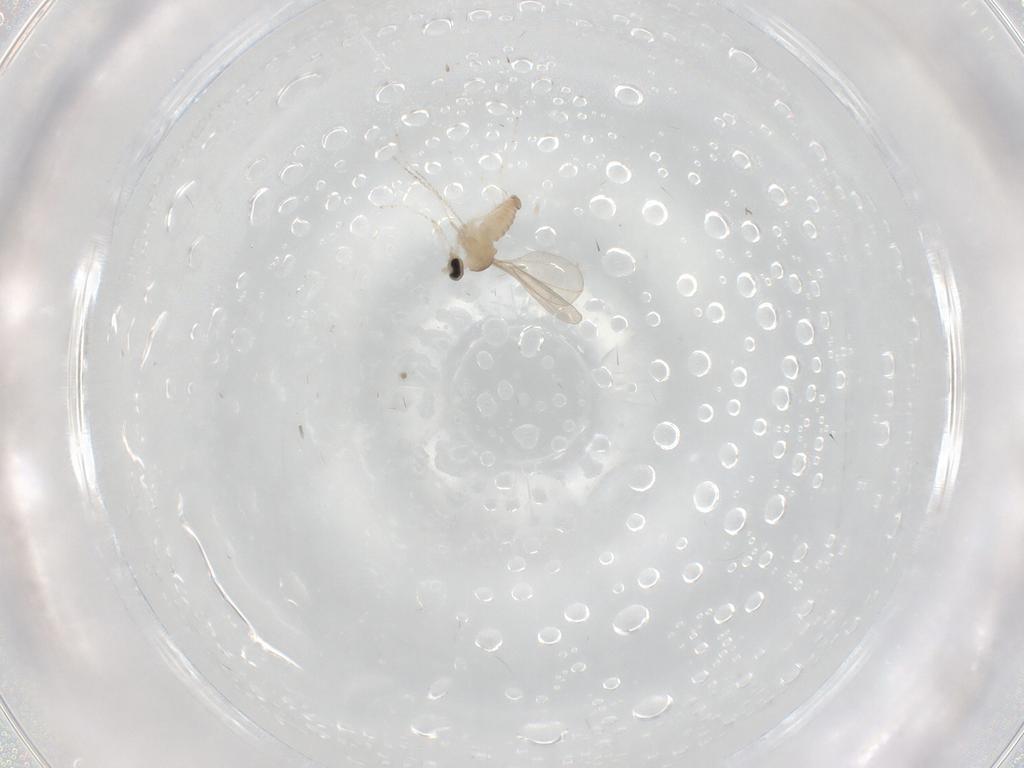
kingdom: Animalia
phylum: Arthropoda
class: Insecta
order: Diptera
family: Cecidomyiidae
